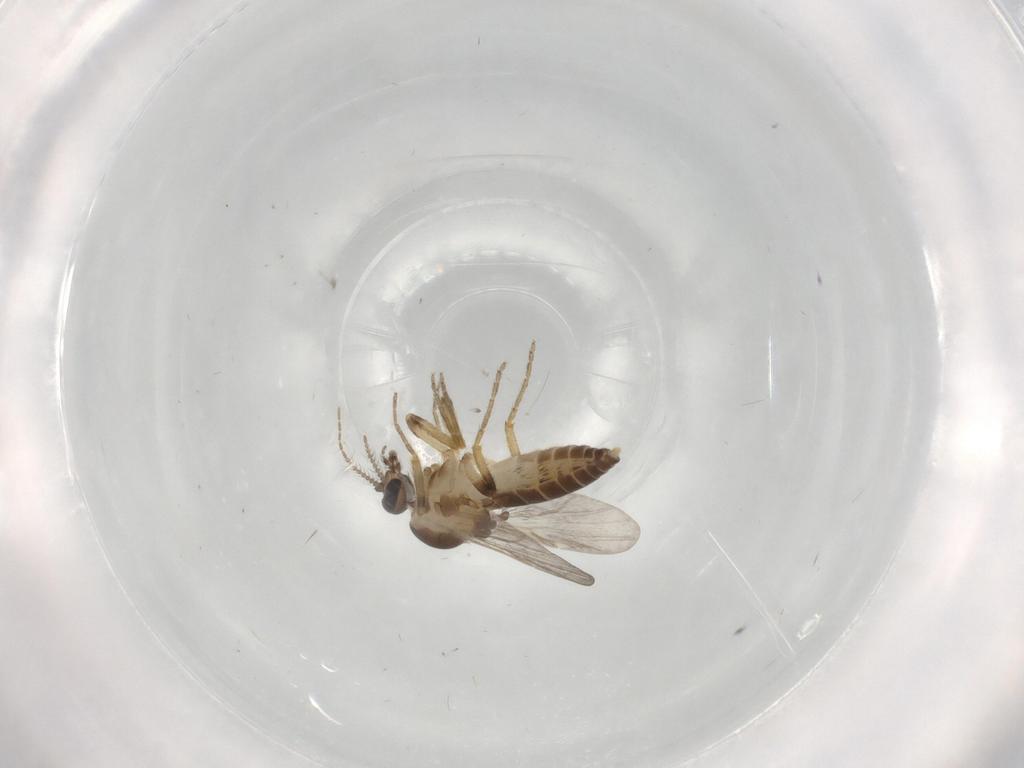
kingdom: Animalia
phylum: Arthropoda
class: Insecta
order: Diptera
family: Ceratopogonidae
